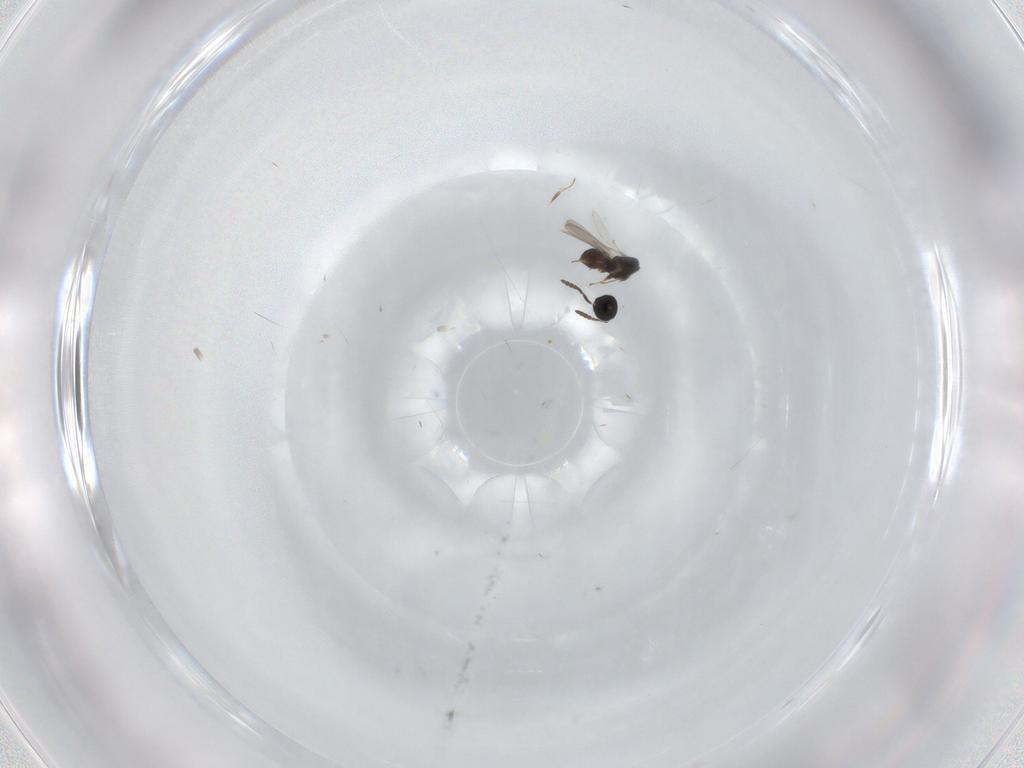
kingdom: Animalia
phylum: Arthropoda
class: Insecta
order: Hymenoptera
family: Scelionidae
